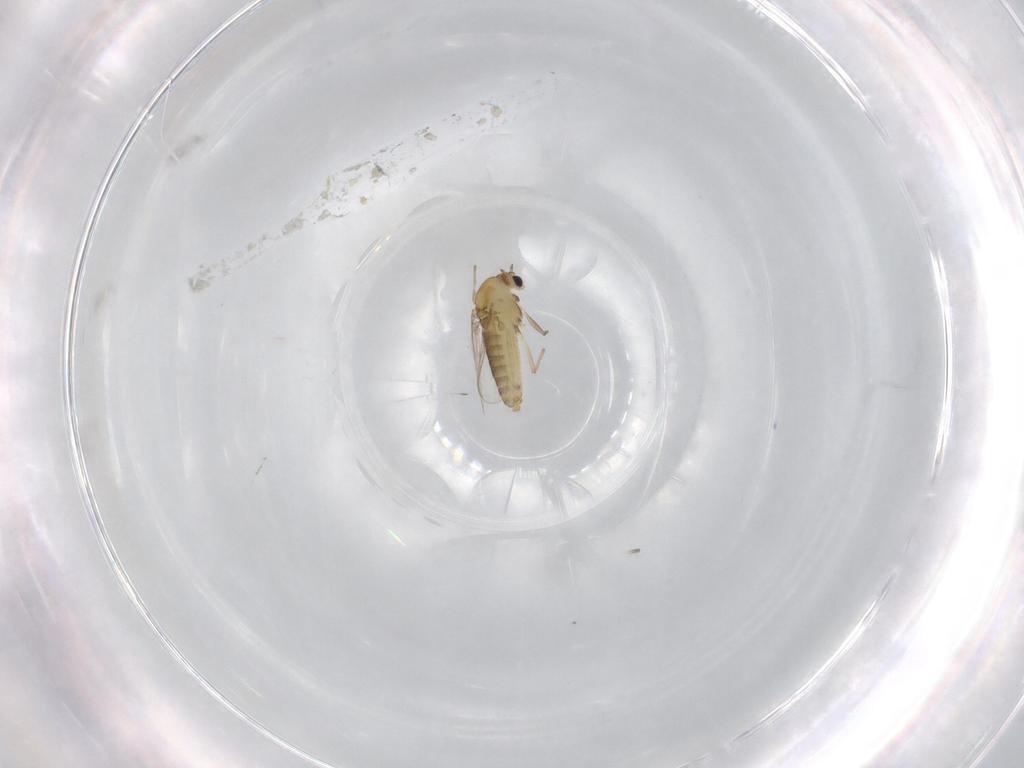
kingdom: Animalia
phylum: Arthropoda
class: Insecta
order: Diptera
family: Chironomidae
